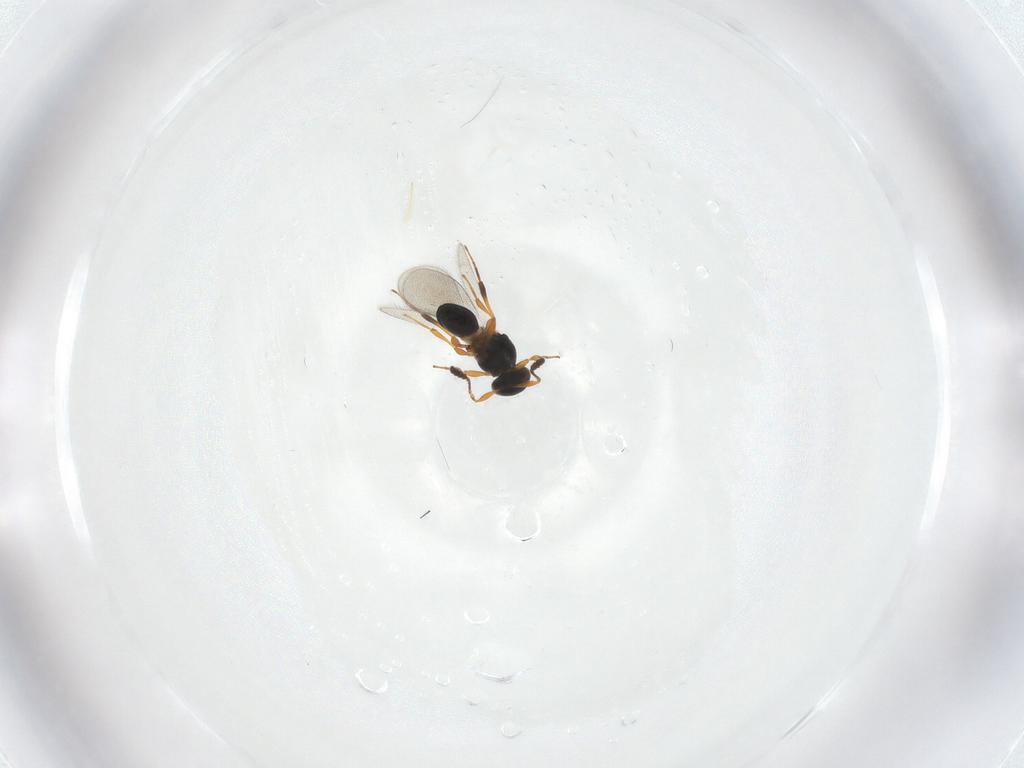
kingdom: Animalia
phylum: Arthropoda
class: Insecta
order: Hymenoptera
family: Platygastridae
